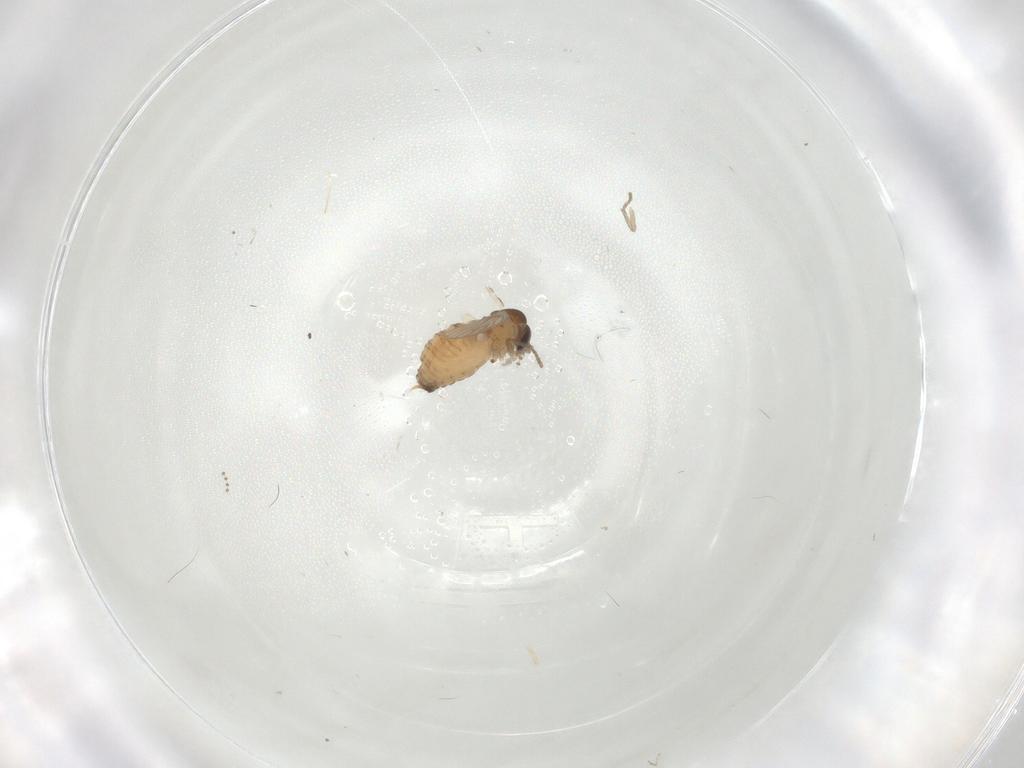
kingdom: Animalia
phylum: Arthropoda
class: Insecta
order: Diptera
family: Psychodidae
